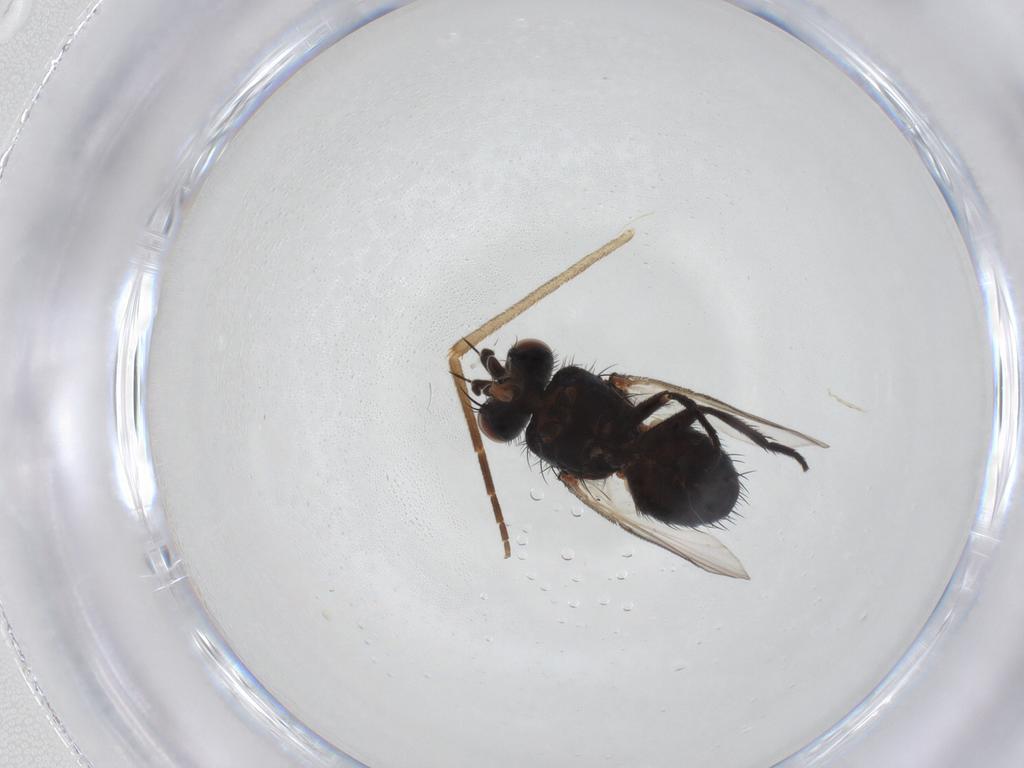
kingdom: Animalia
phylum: Arthropoda
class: Insecta
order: Diptera
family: Tachinidae
